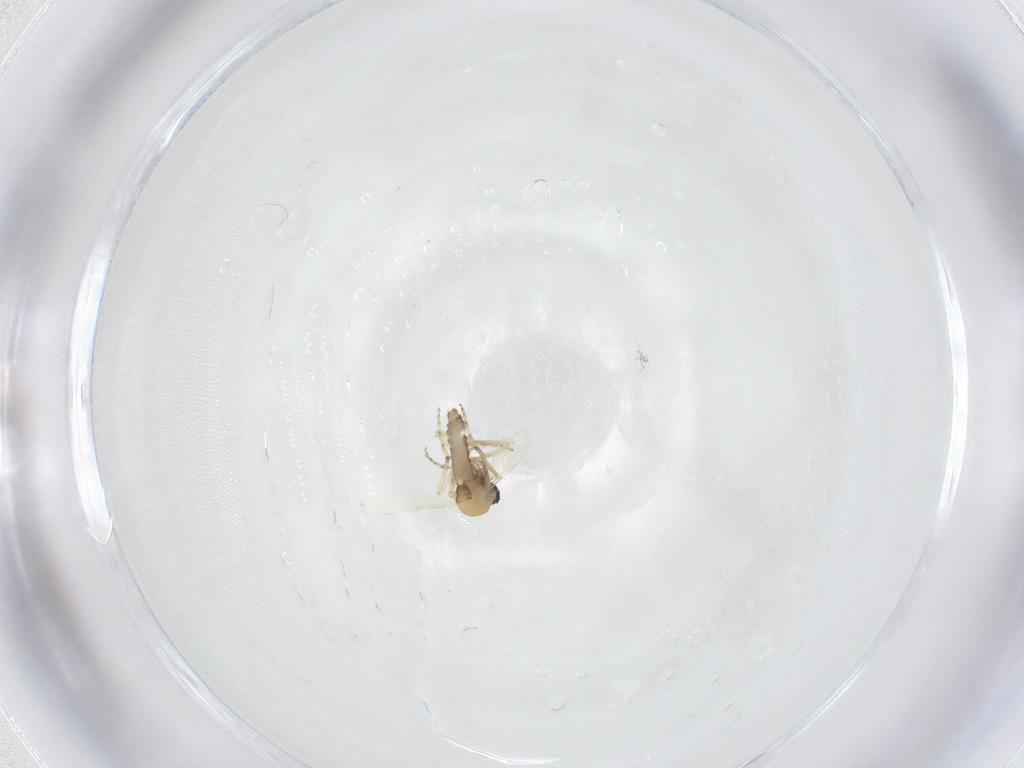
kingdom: Animalia
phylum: Arthropoda
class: Insecta
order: Diptera
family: Ceratopogonidae
